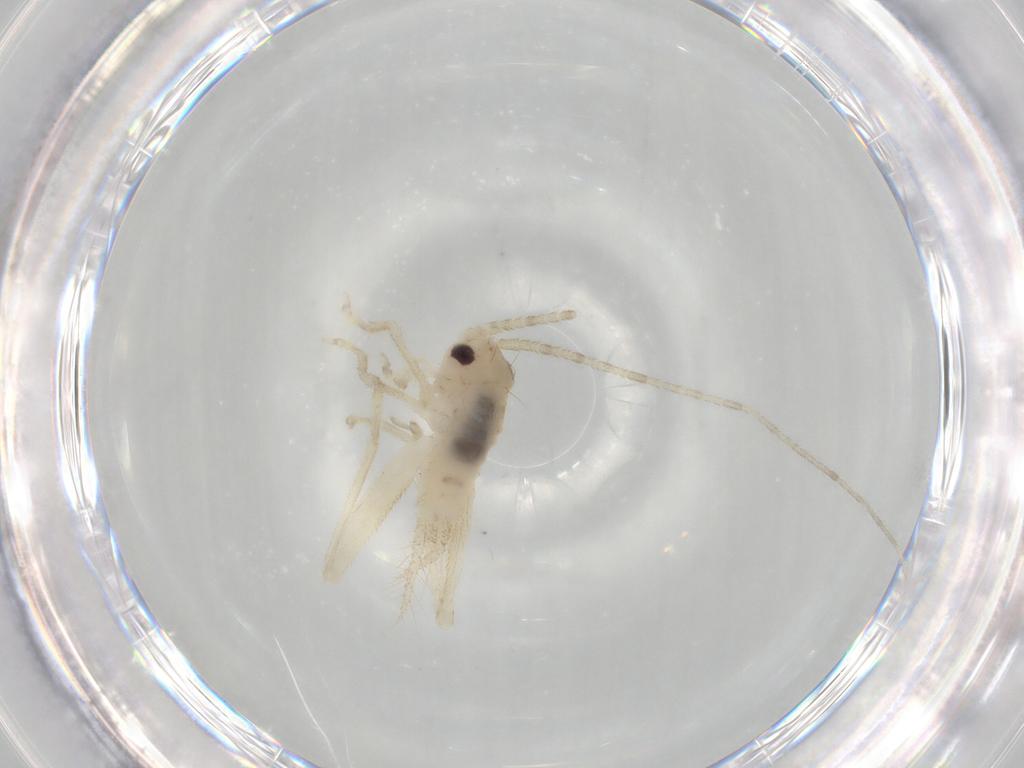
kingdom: Animalia
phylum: Arthropoda
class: Insecta
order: Orthoptera
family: Trigonidiidae
